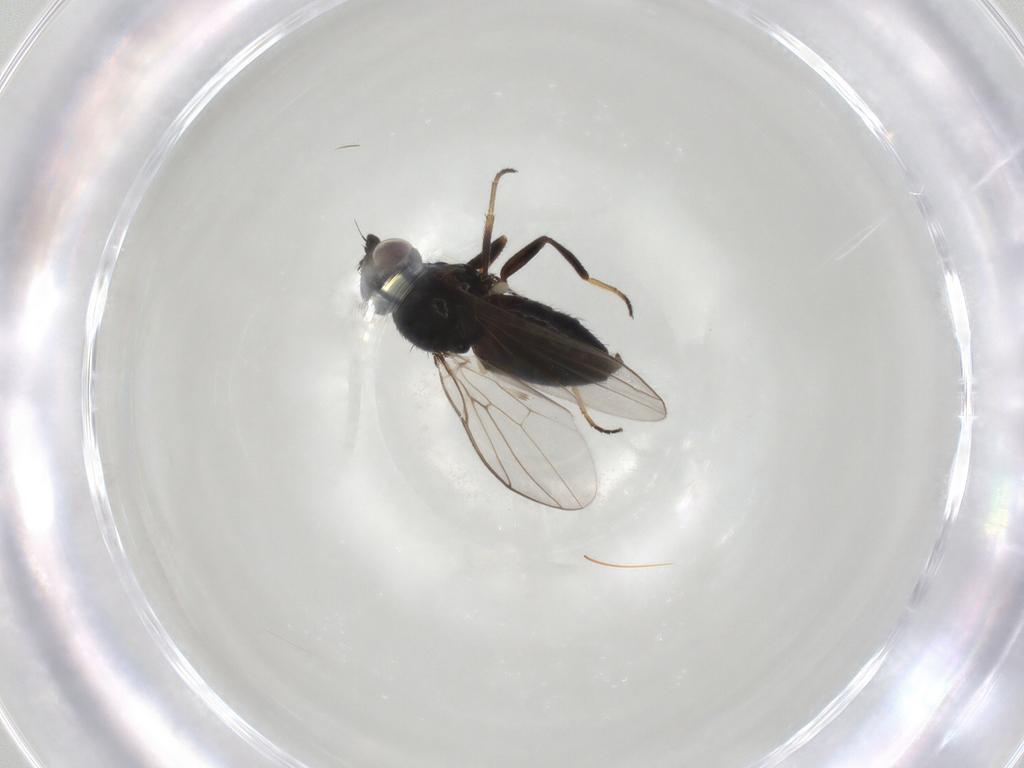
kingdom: Animalia
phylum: Arthropoda
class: Insecta
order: Diptera
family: Chloropidae
